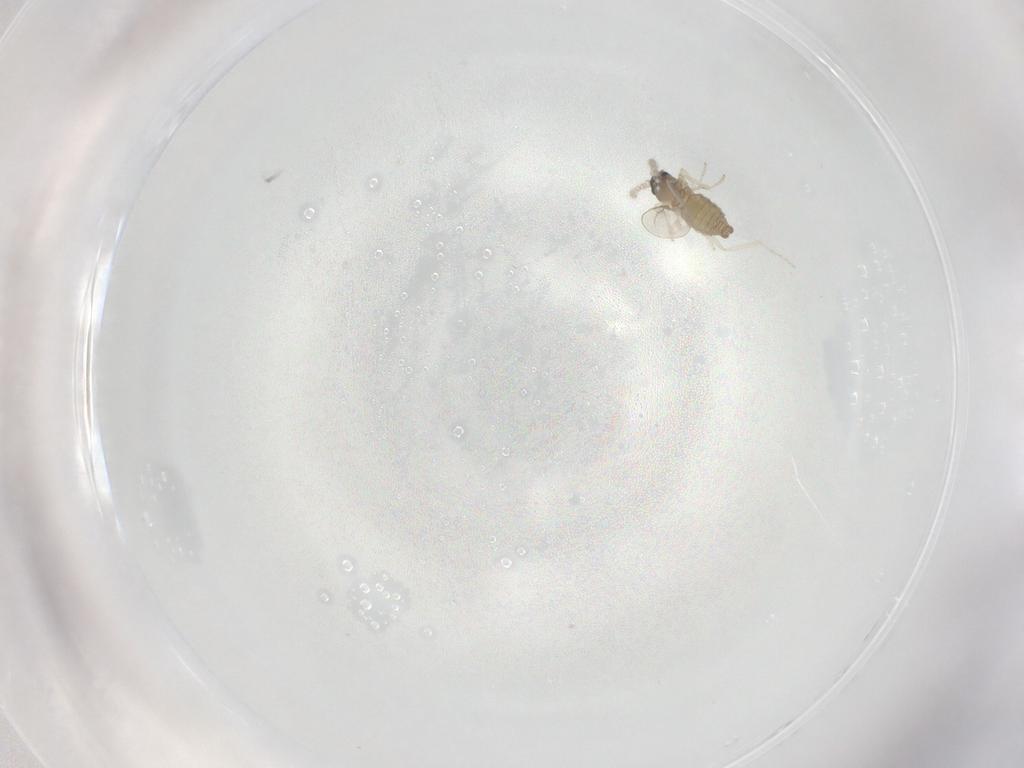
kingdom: Animalia
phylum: Arthropoda
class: Insecta
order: Diptera
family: Cecidomyiidae
